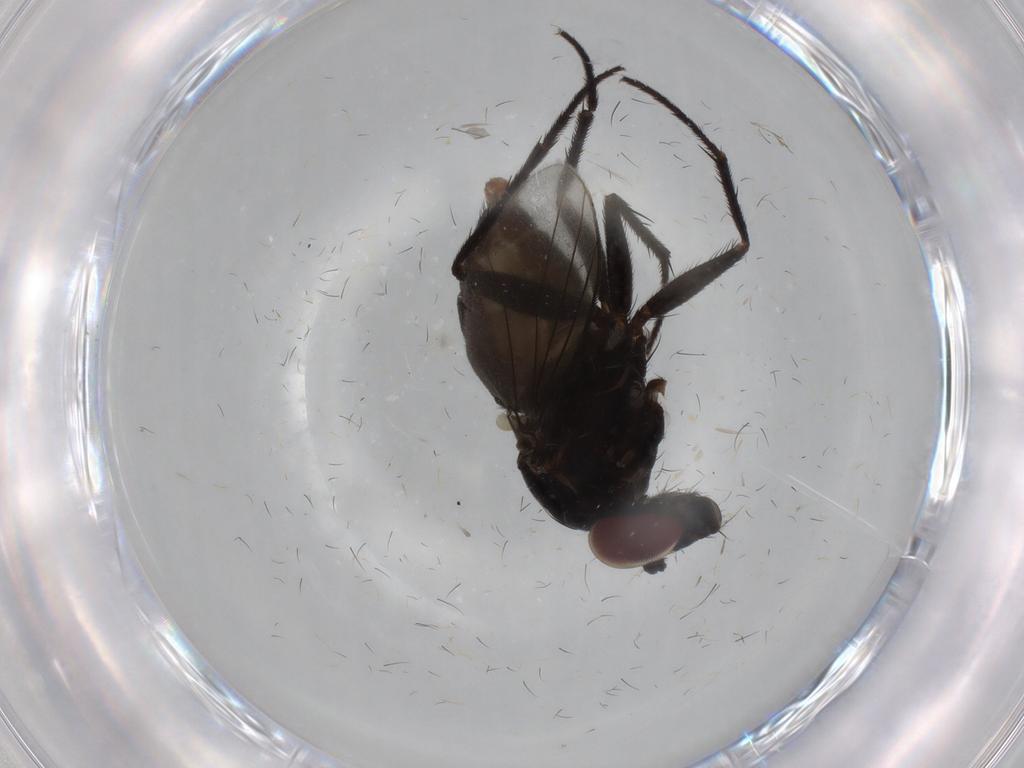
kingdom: Animalia
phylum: Arthropoda
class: Insecta
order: Diptera
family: Dolichopodidae
